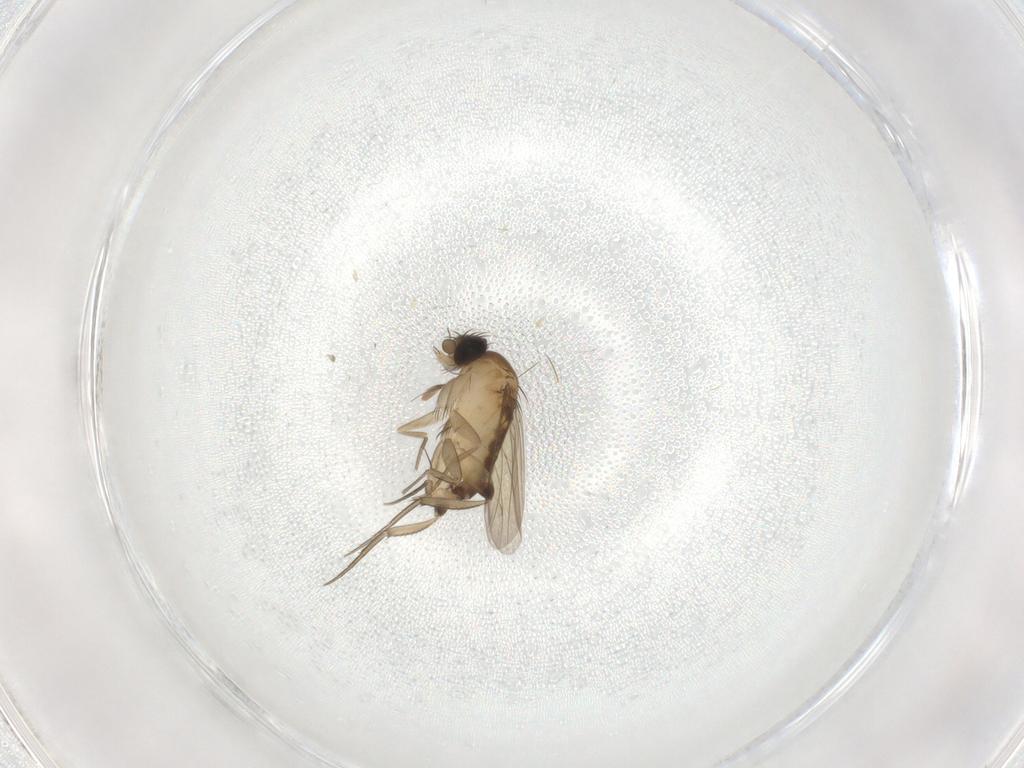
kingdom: Animalia
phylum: Arthropoda
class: Insecta
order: Diptera
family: Phoridae
